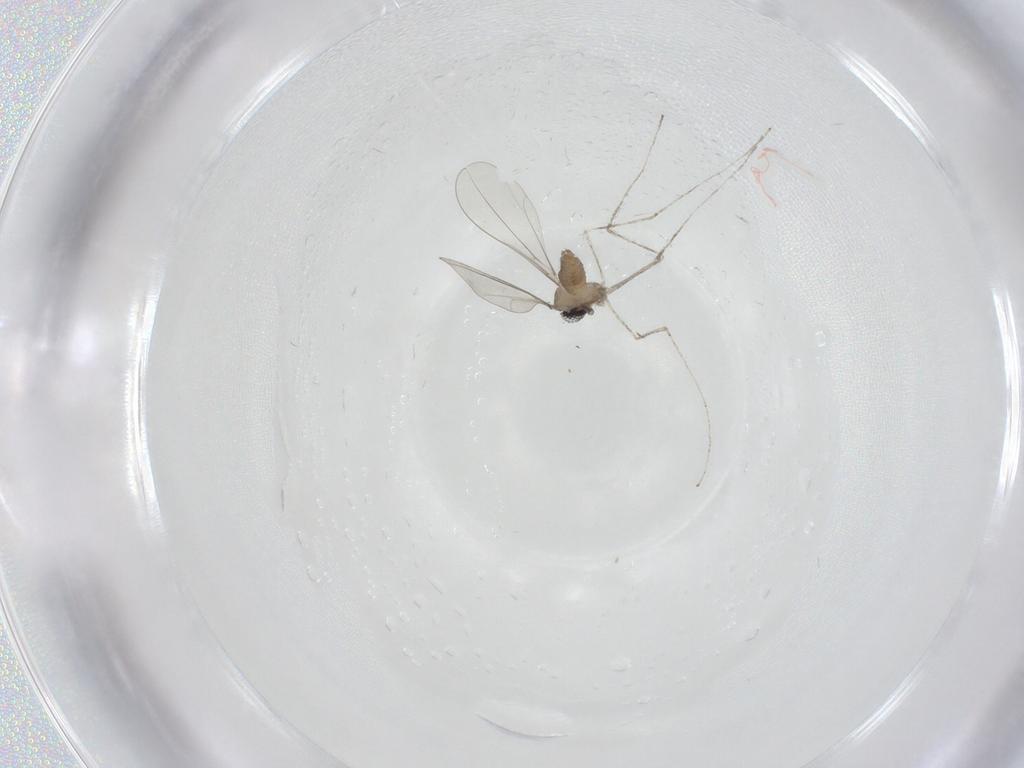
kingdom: Animalia
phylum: Arthropoda
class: Insecta
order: Diptera
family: Cecidomyiidae
